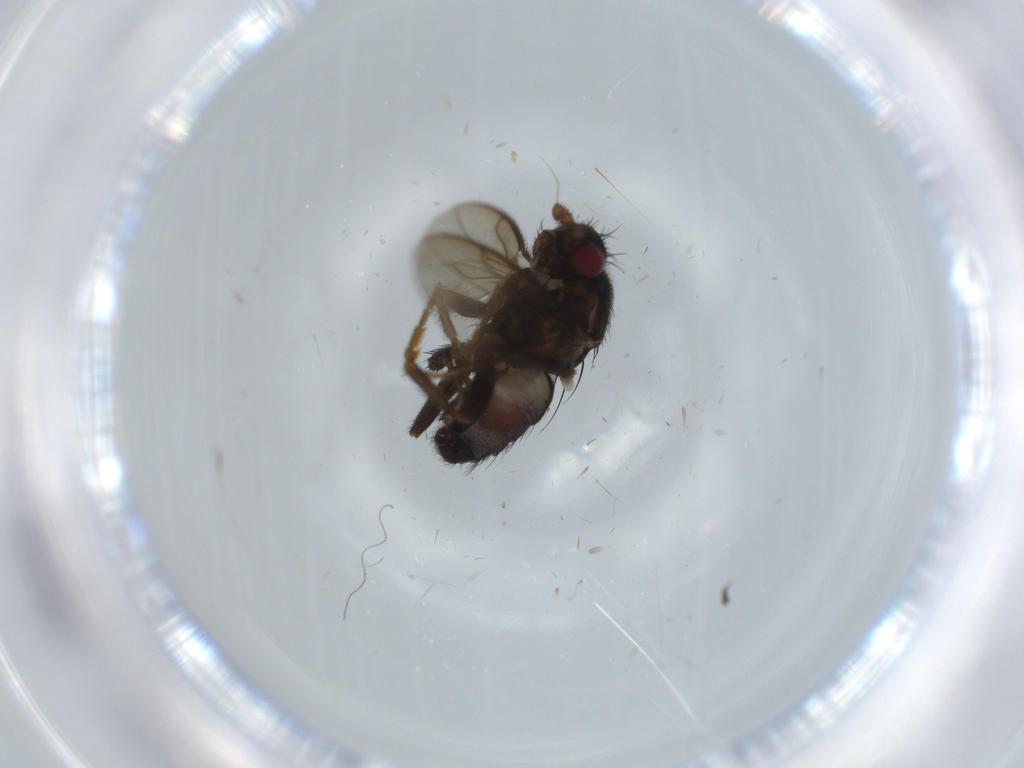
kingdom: Animalia
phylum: Arthropoda
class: Insecta
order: Diptera
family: Sphaeroceridae
